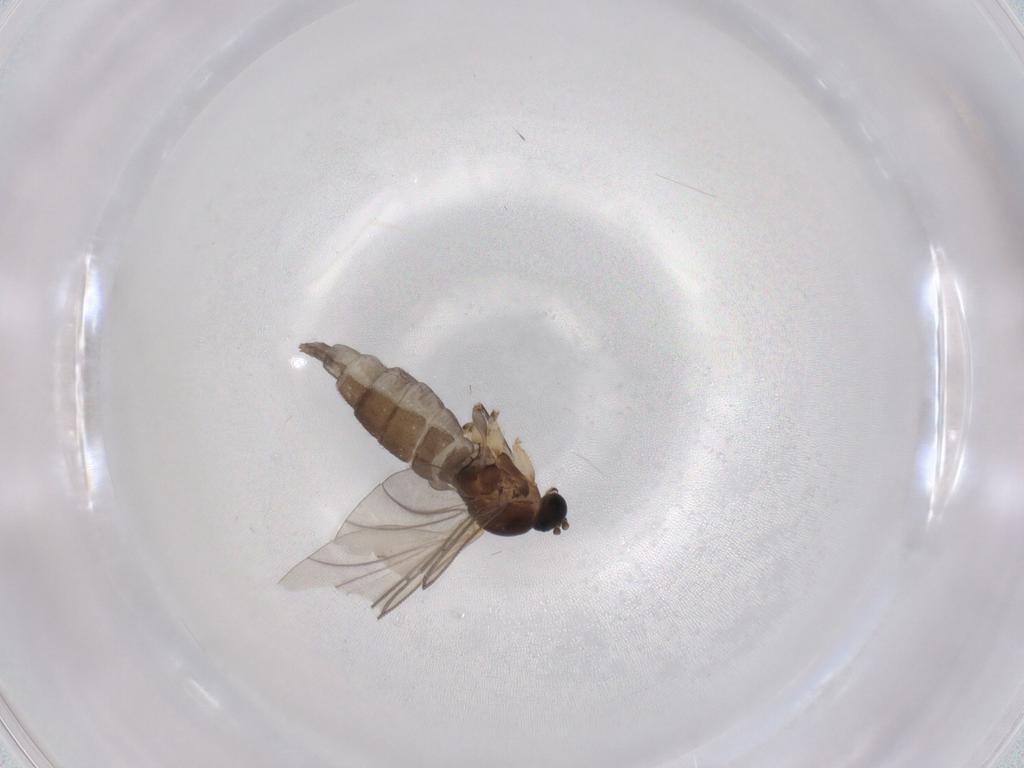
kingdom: Animalia
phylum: Arthropoda
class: Insecta
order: Diptera
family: Sciaridae
